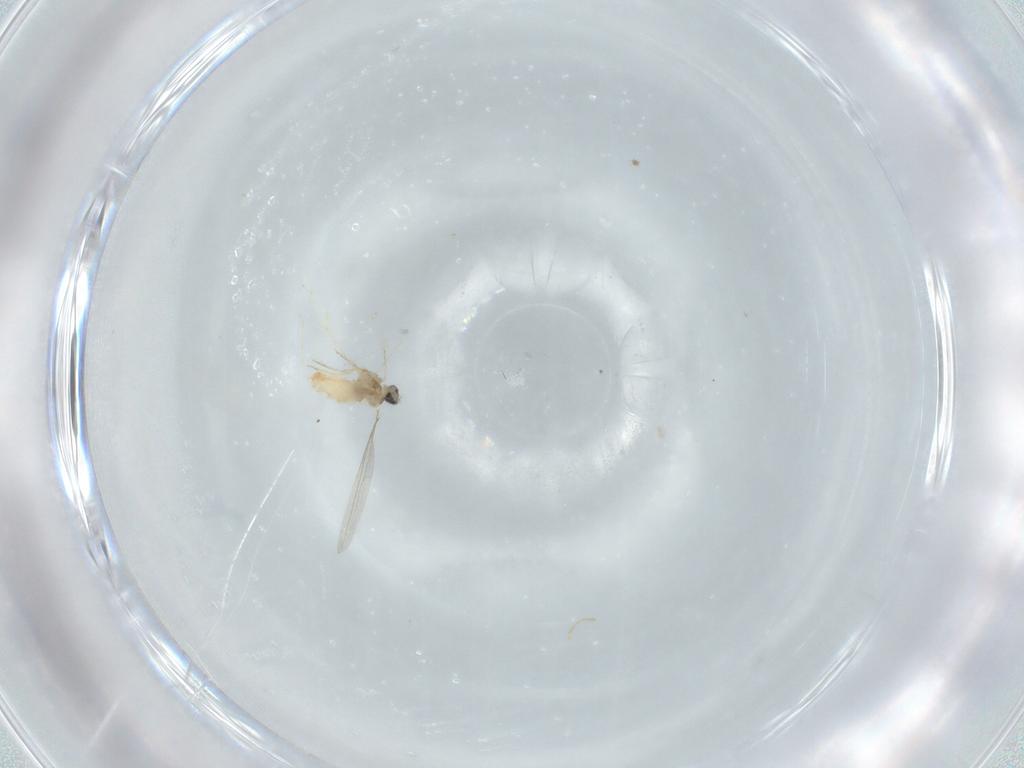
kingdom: Animalia
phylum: Arthropoda
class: Insecta
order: Diptera
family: Cecidomyiidae
